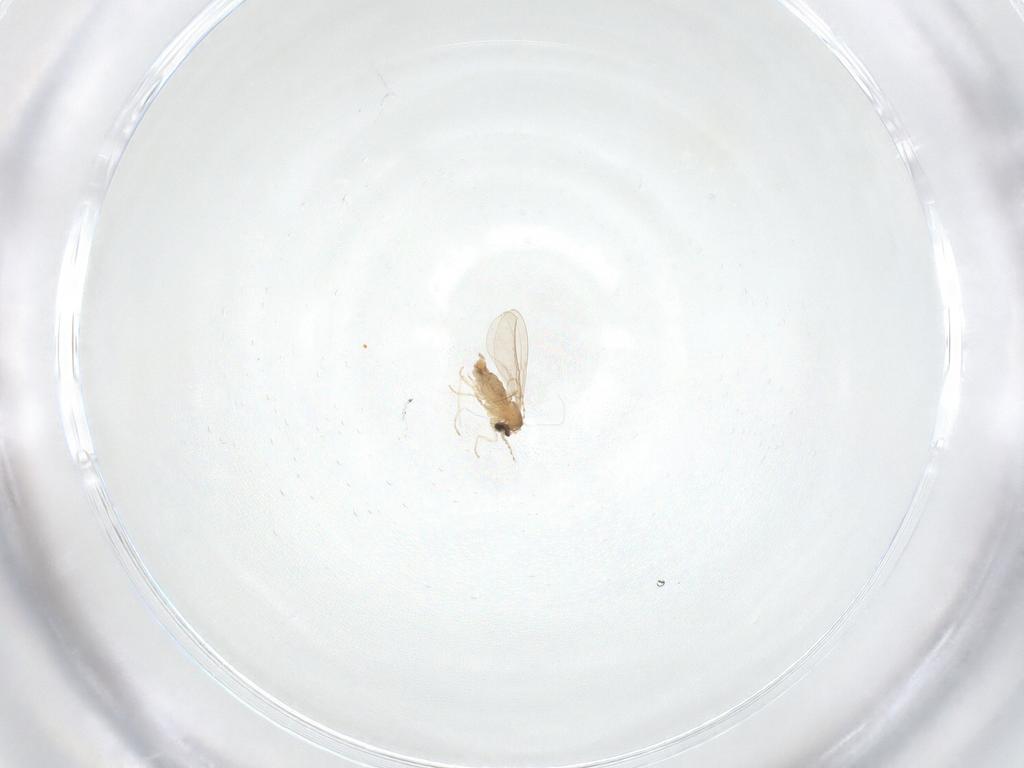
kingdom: Animalia
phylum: Arthropoda
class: Insecta
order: Diptera
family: Cecidomyiidae
